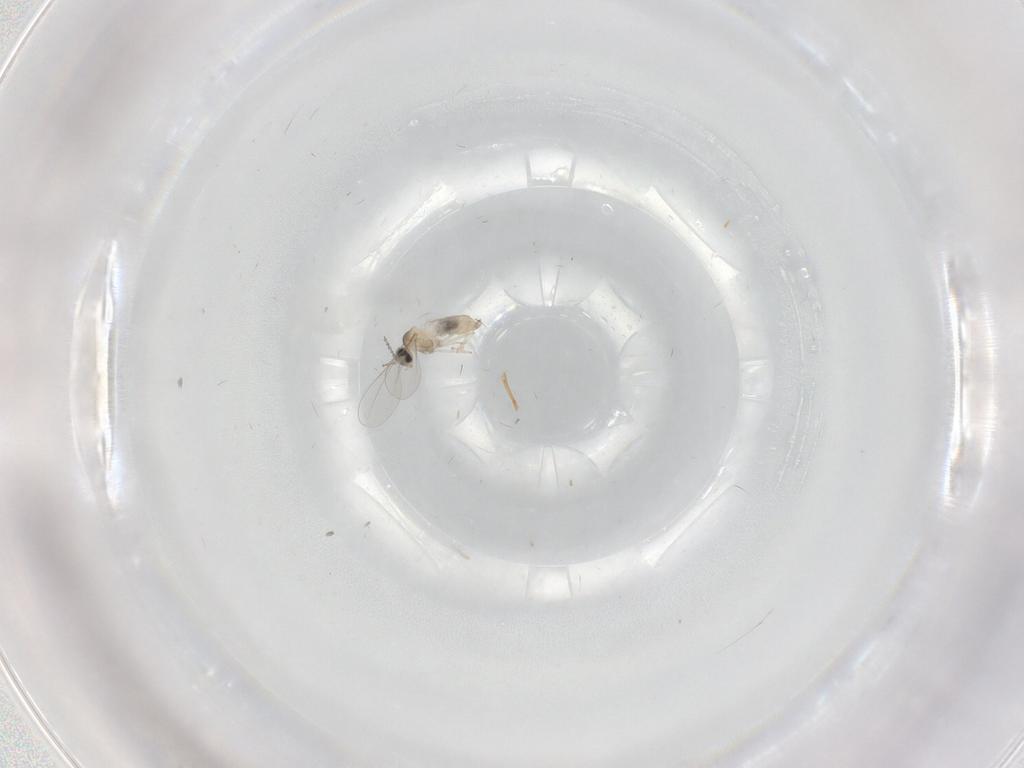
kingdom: Animalia
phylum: Arthropoda
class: Insecta
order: Diptera
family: Cecidomyiidae
